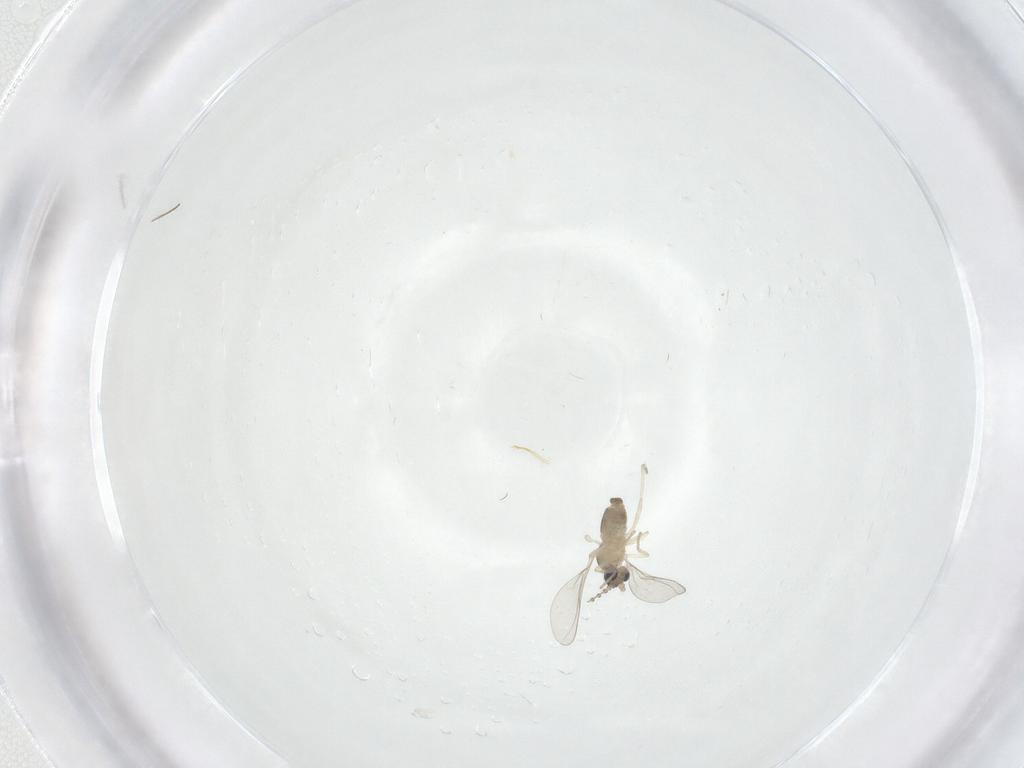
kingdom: Animalia
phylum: Arthropoda
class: Insecta
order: Diptera
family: Cecidomyiidae
